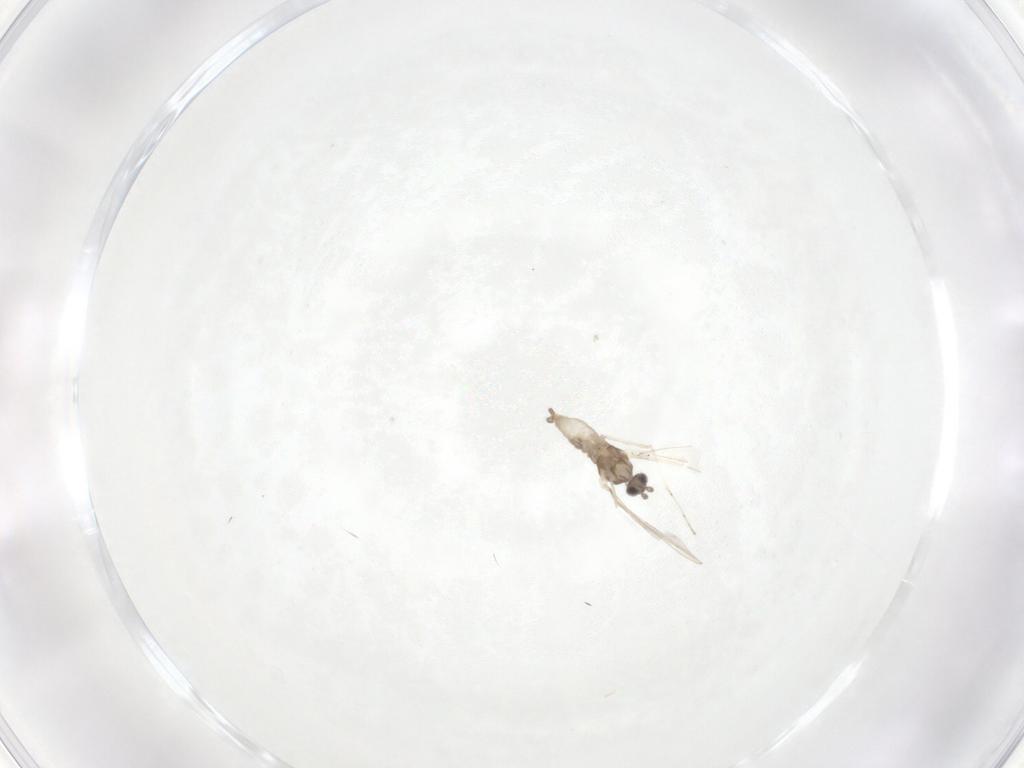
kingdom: Animalia
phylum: Arthropoda
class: Insecta
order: Diptera
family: Cecidomyiidae
